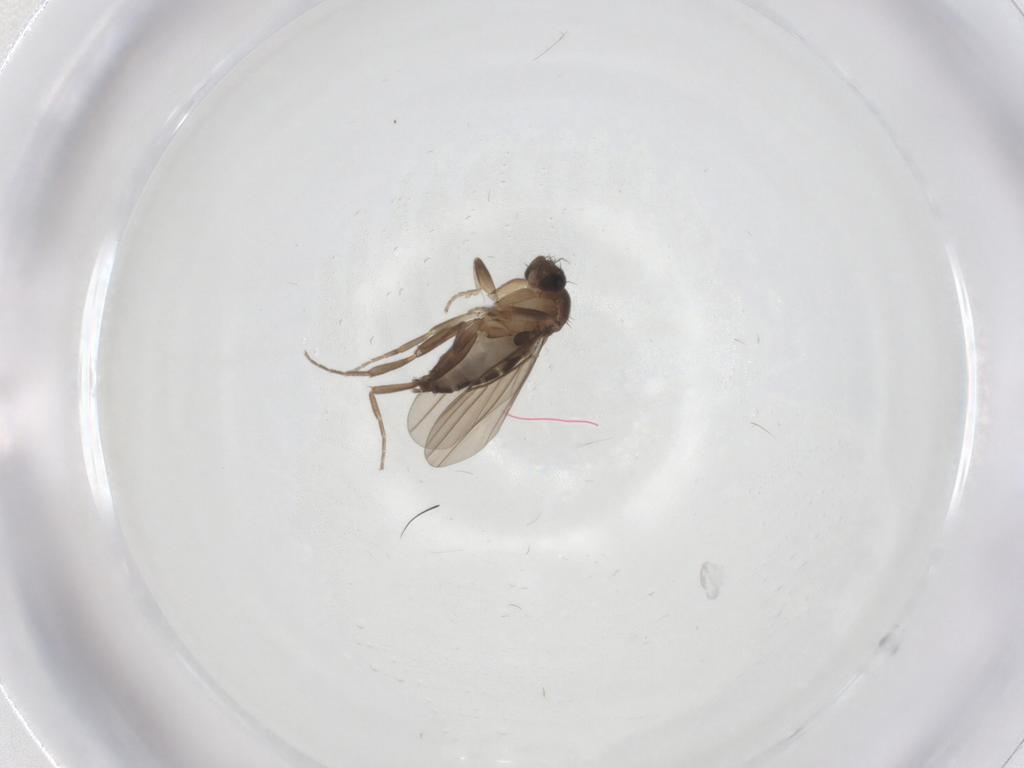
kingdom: Animalia
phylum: Arthropoda
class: Insecta
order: Diptera
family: Phoridae
